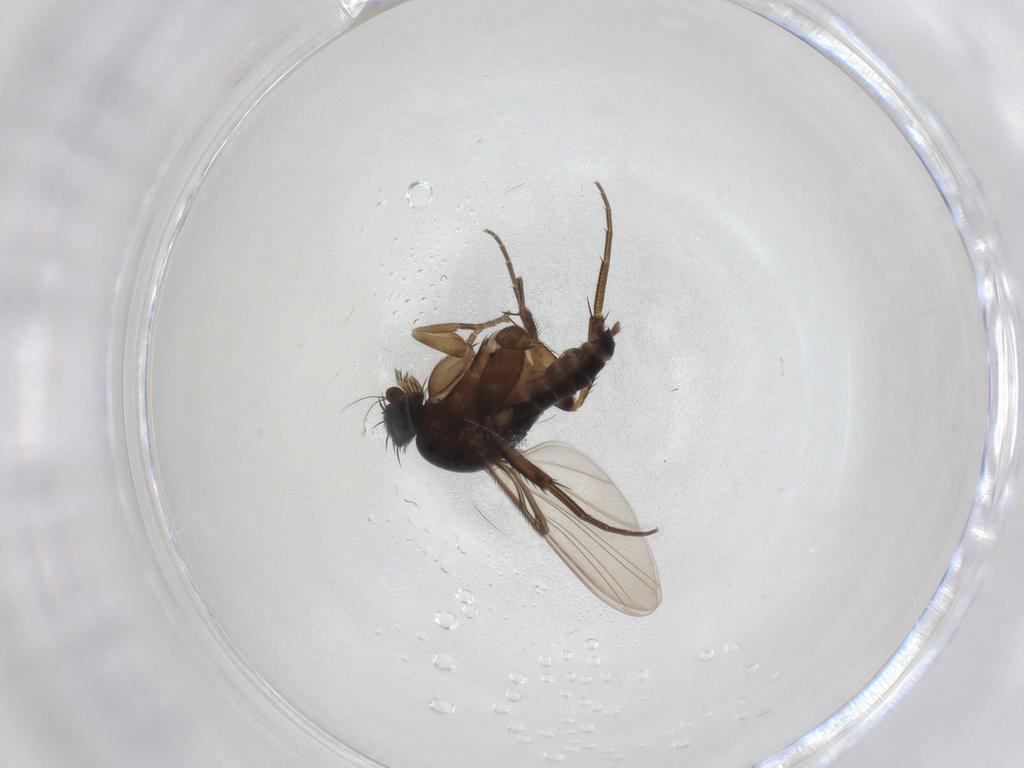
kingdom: Animalia
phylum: Arthropoda
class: Insecta
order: Diptera
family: Phoridae
